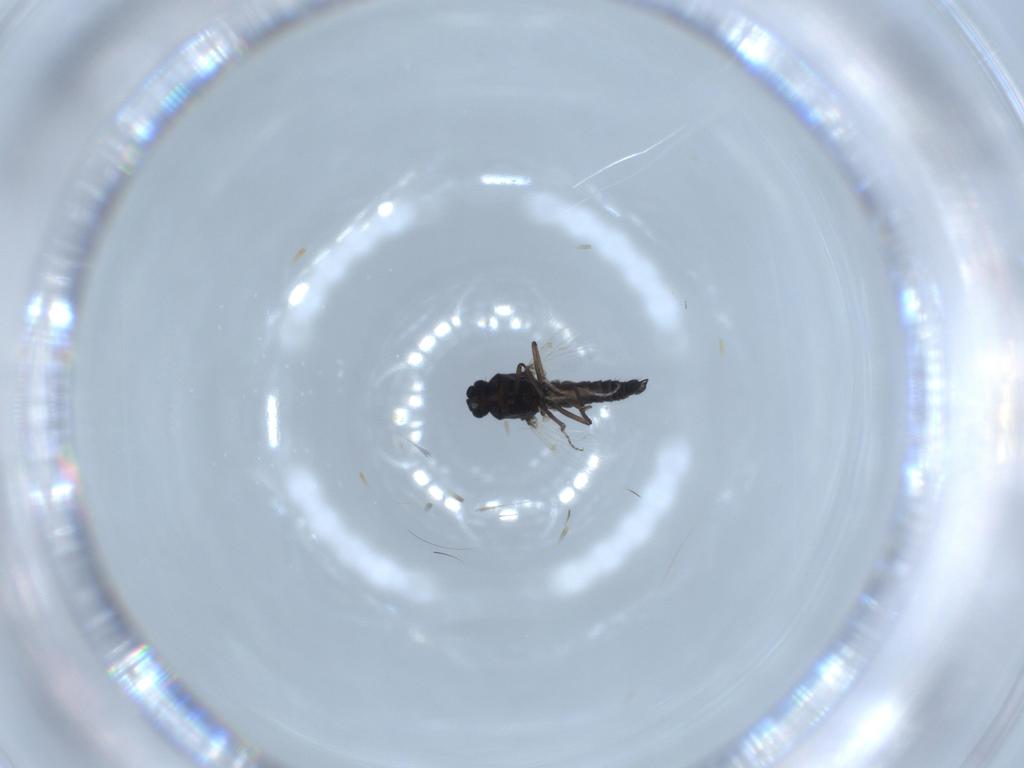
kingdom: Animalia
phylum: Arthropoda
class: Insecta
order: Diptera
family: Ceratopogonidae
